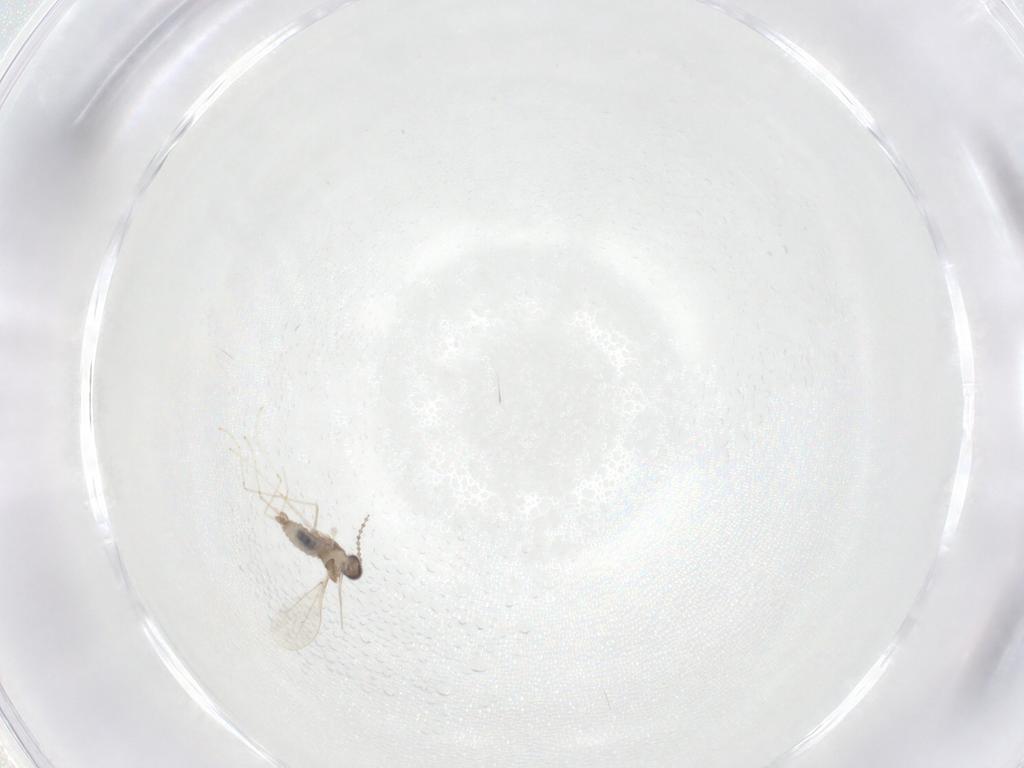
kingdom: Animalia
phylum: Arthropoda
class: Insecta
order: Diptera
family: Cecidomyiidae
